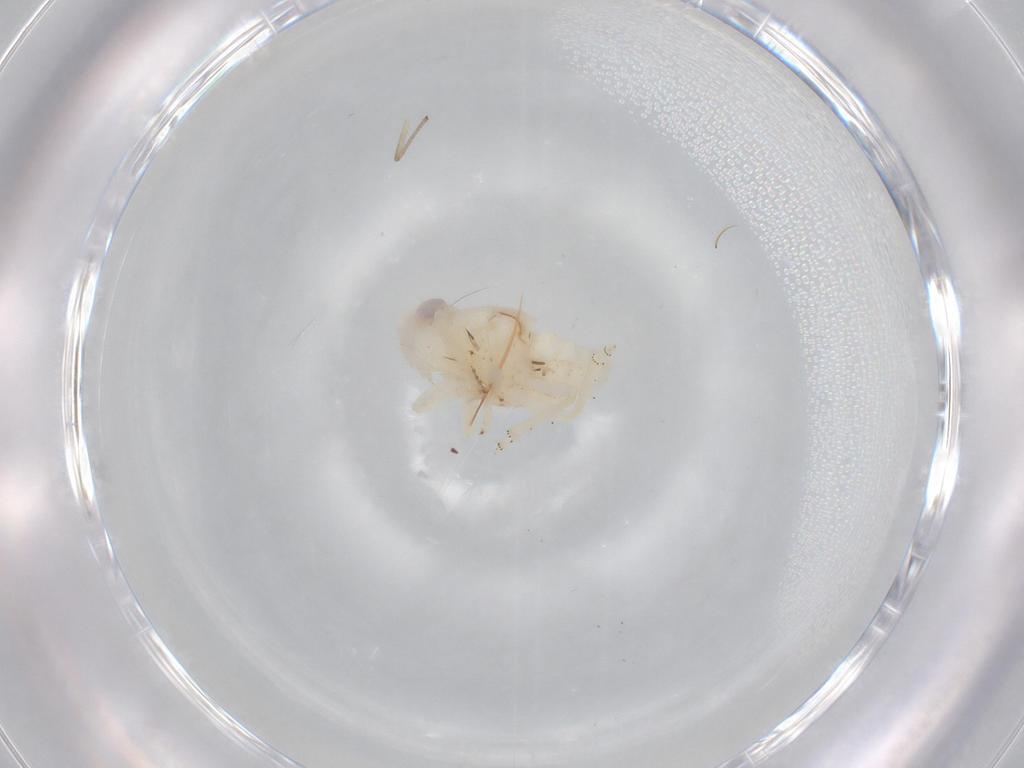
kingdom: Animalia
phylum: Arthropoda
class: Insecta
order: Hemiptera
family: Nogodinidae
